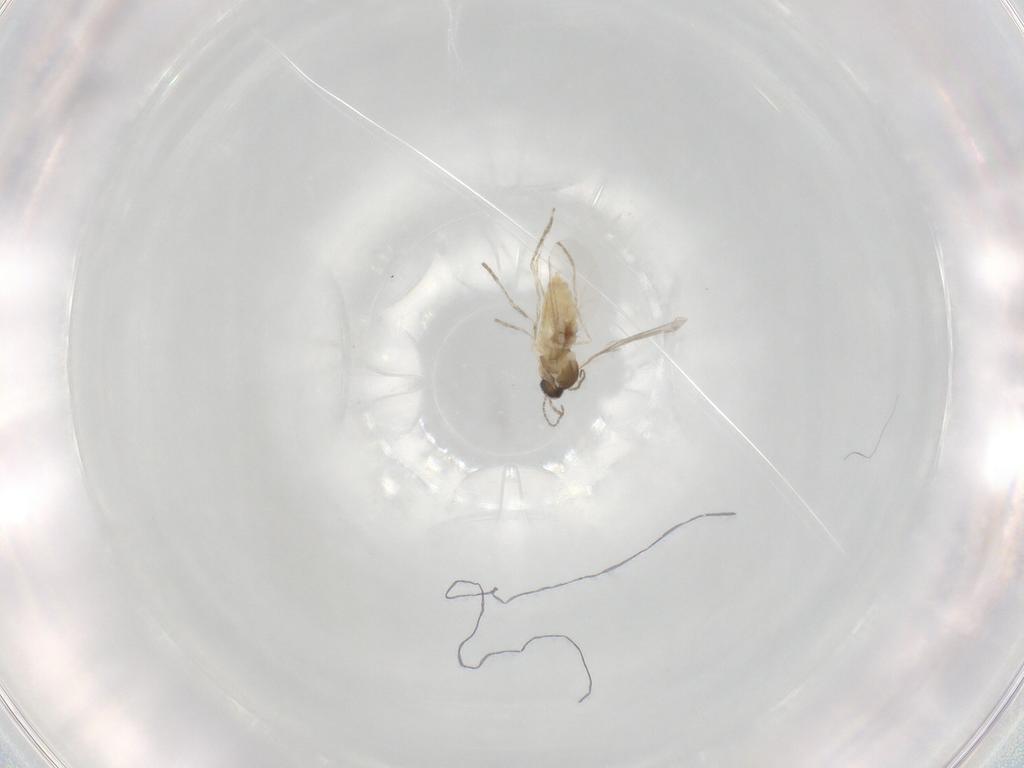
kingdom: Animalia
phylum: Arthropoda
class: Insecta
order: Diptera
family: Cecidomyiidae
